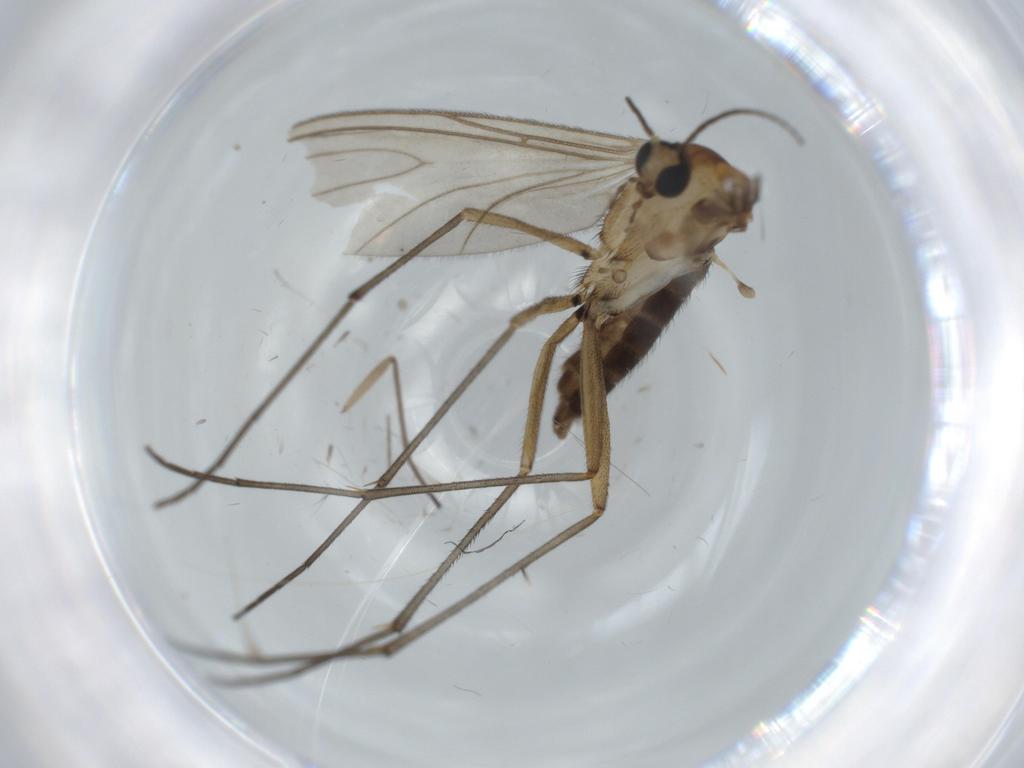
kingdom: Animalia
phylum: Arthropoda
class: Insecta
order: Diptera
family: Sciaridae
